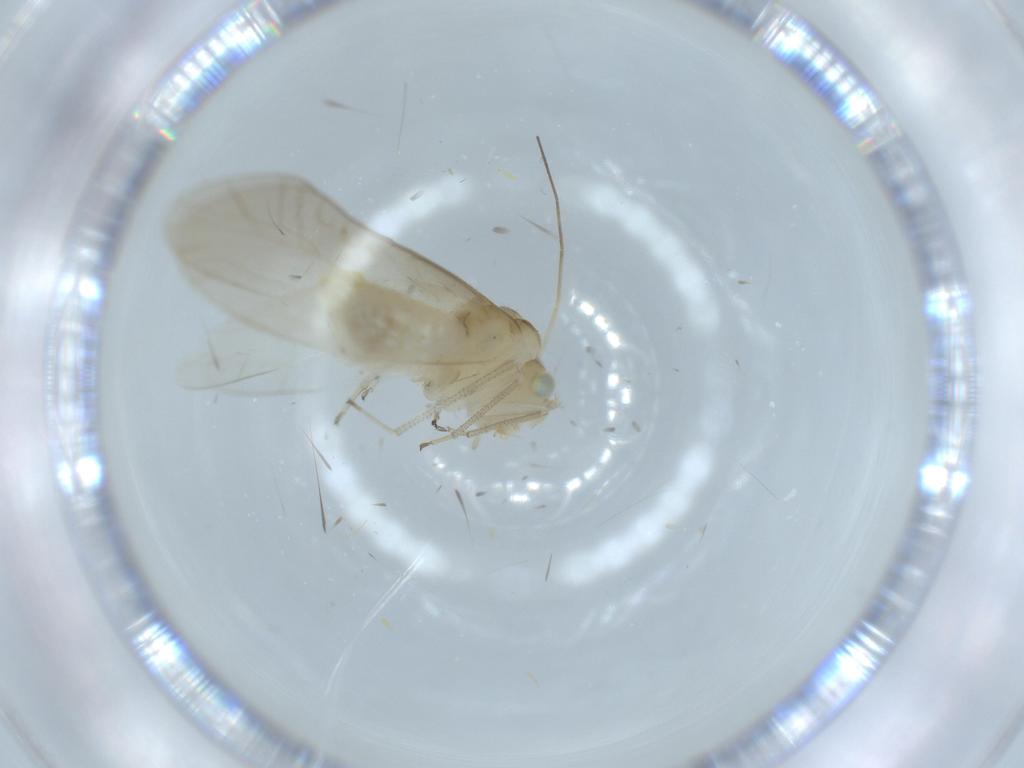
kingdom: Animalia
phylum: Arthropoda
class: Insecta
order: Psocodea
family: Caeciliusidae
